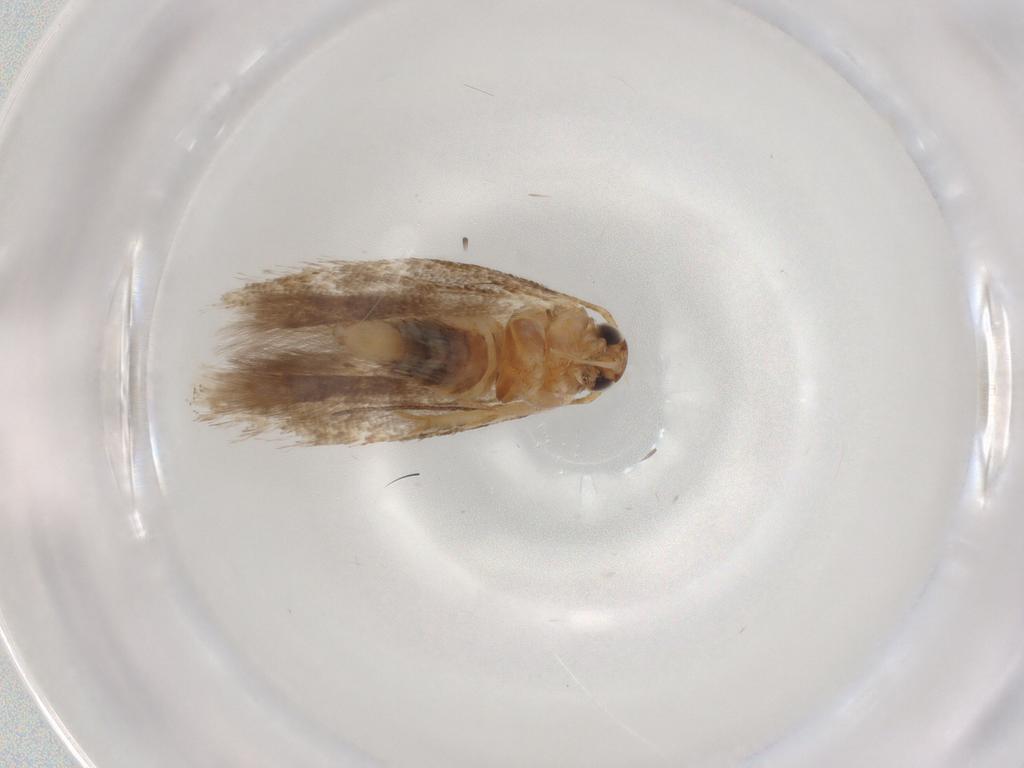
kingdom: Animalia
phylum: Arthropoda
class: Insecta
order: Lepidoptera
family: Gelechiidae
